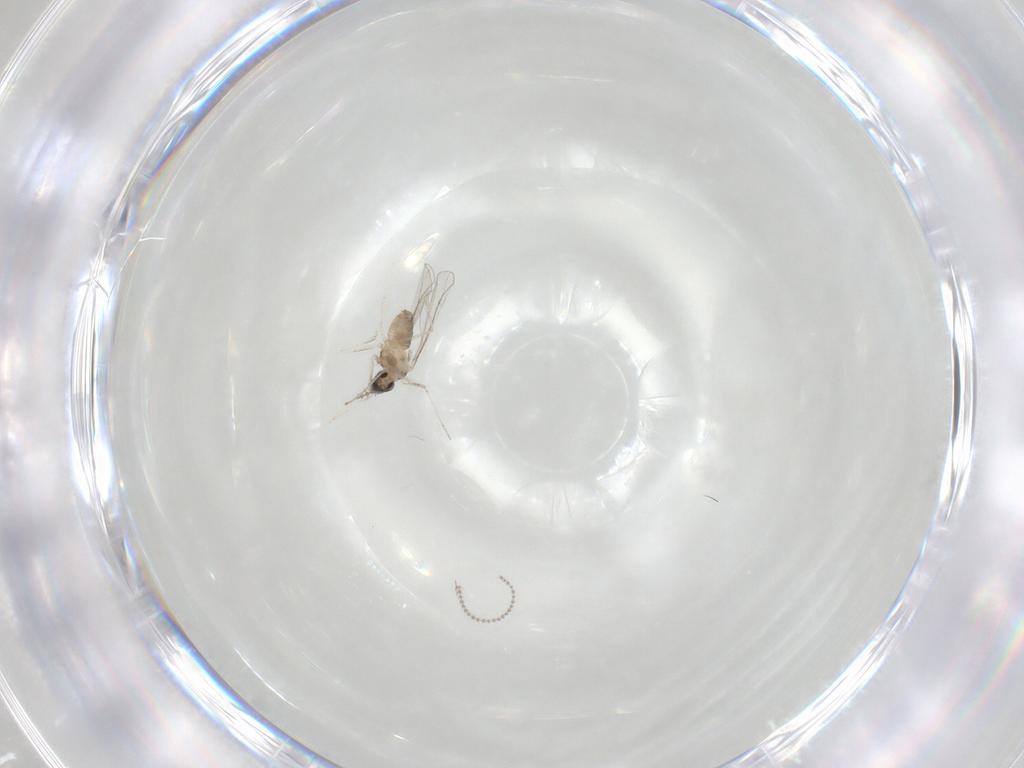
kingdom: Animalia
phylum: Arthropoda
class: Insecta
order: Diptera
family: Cecidomyiidae
